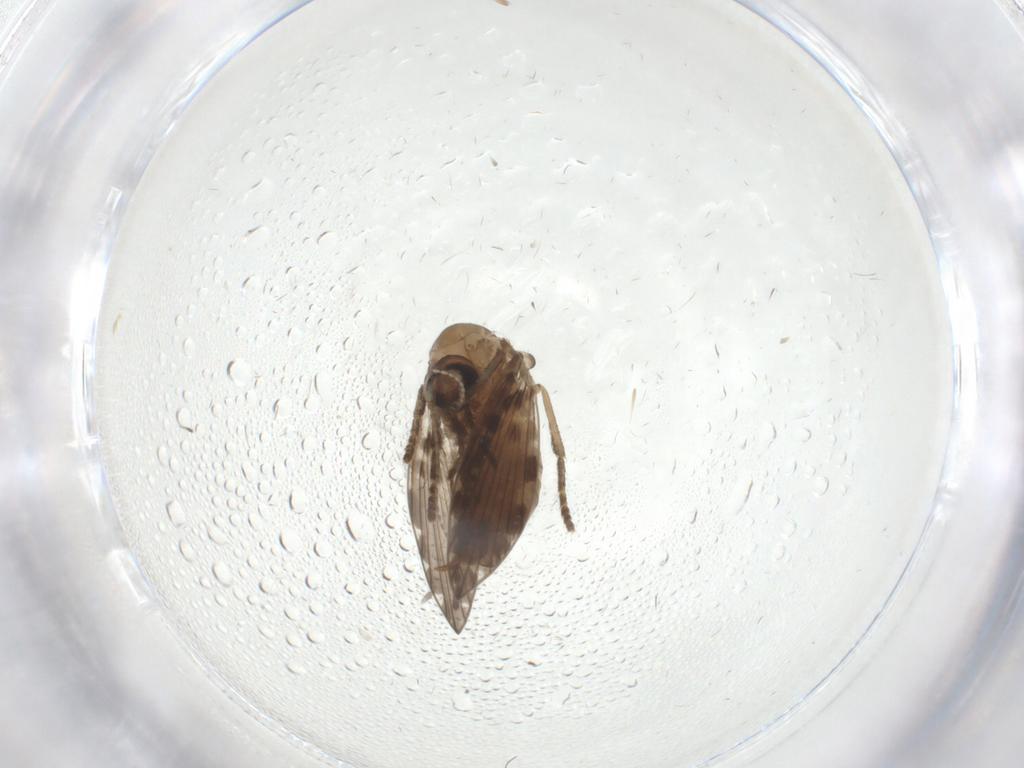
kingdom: Animalia
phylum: Arthropoda
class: Insecta
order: Diptera
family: Psychodidae
